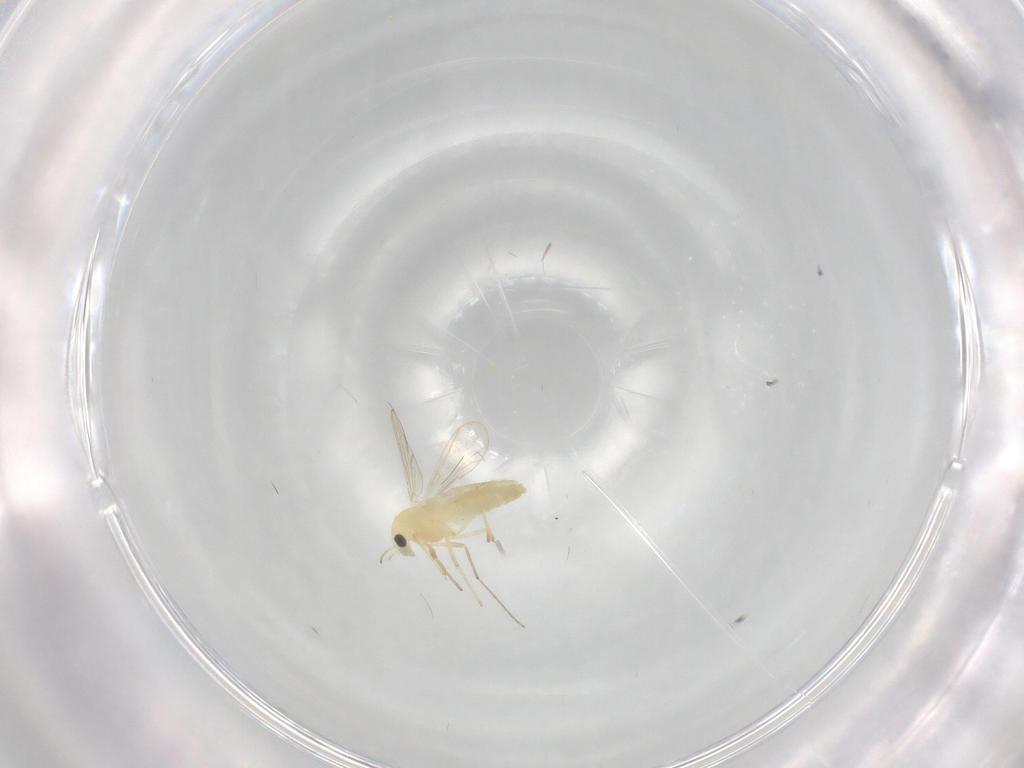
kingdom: Animalia
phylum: Arthropoda
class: Insecta
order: Diptera
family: Chironomidae
